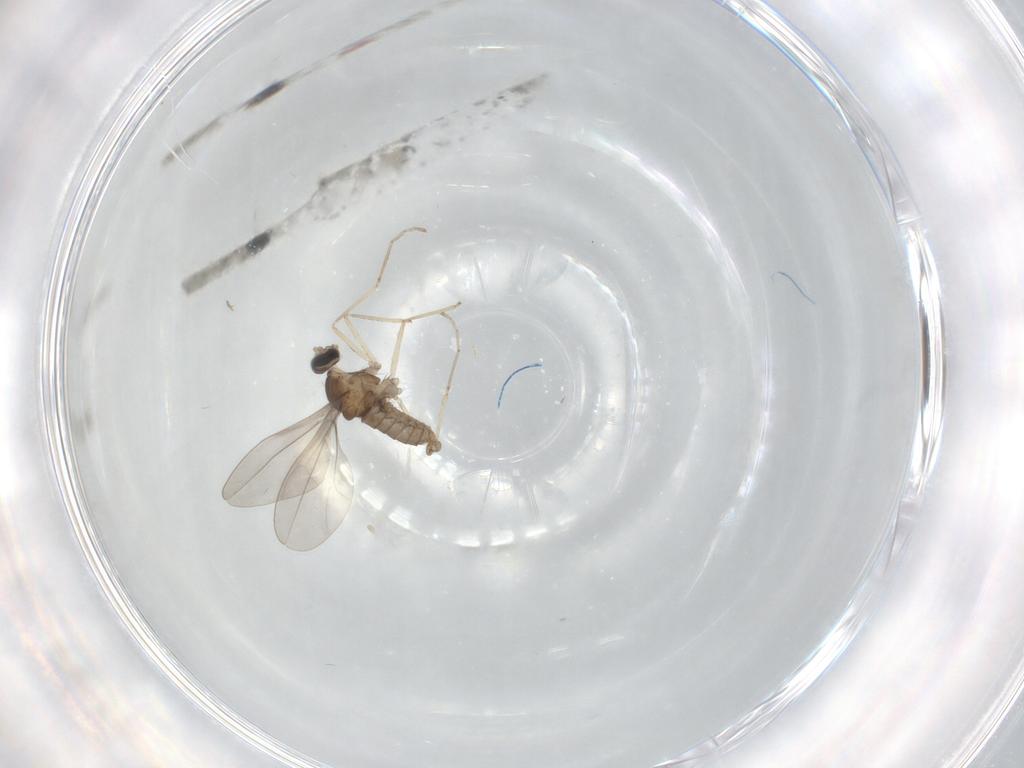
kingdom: Animalia
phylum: Arthropoda
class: Insecta
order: Diptera
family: Cecidomyiidae
